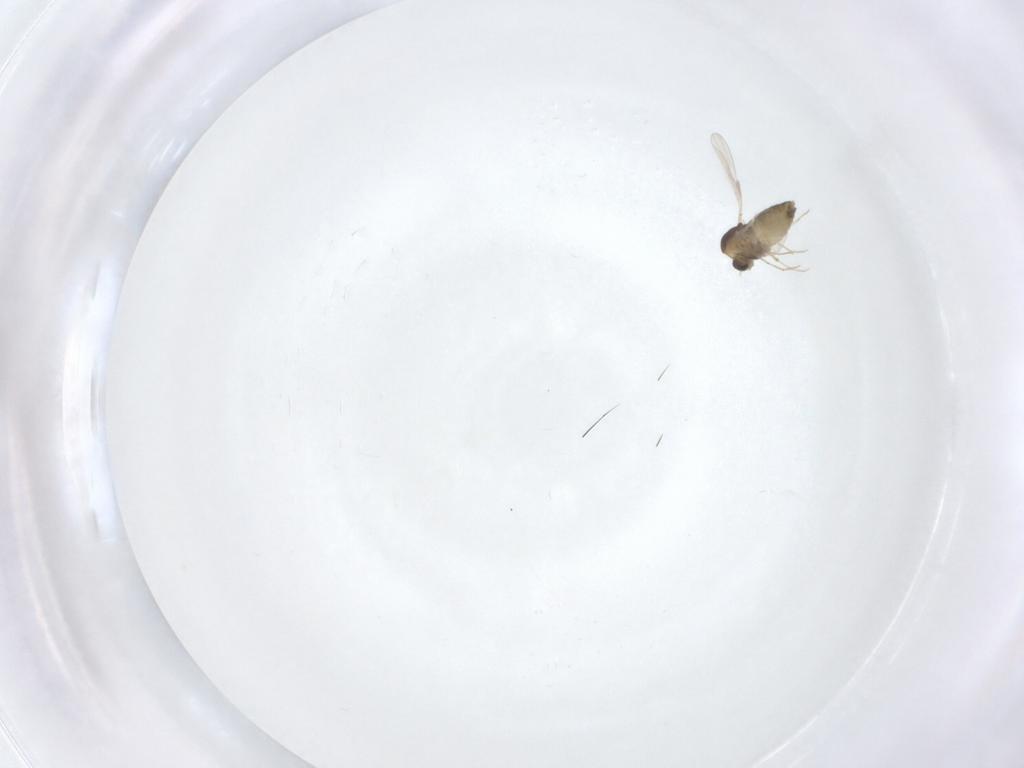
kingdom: Animalia
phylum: Arthropoda
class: Insecta
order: Diptera
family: Chironomidae
